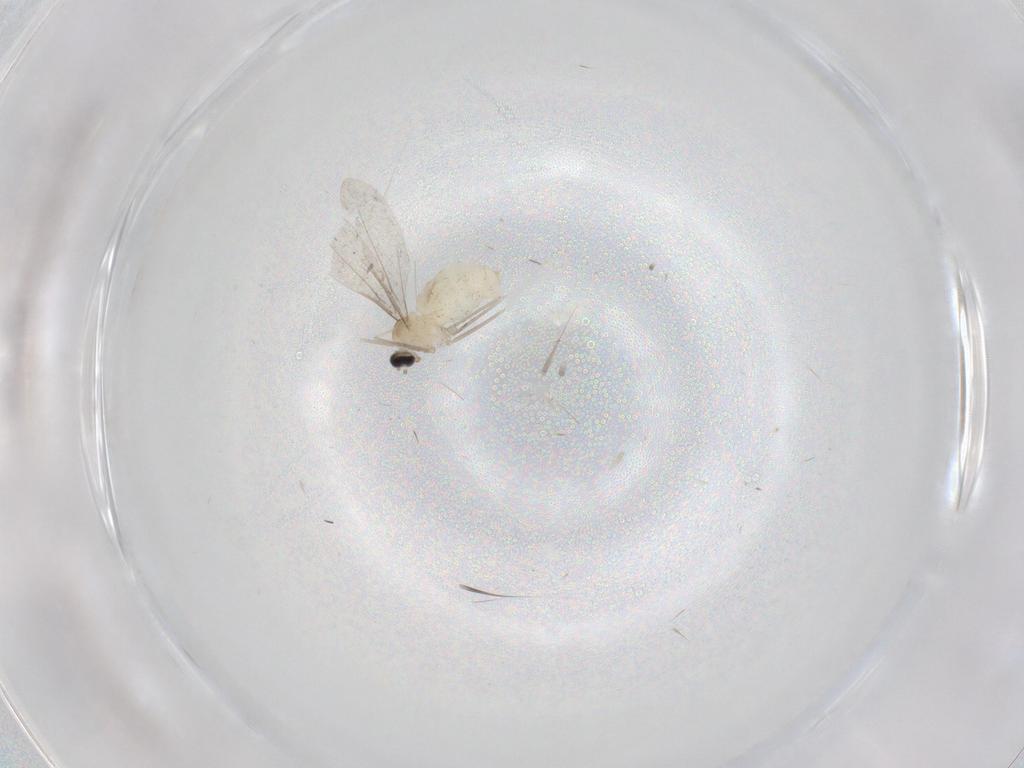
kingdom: Animalia
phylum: Arthropoda
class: Insecta
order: Diptera
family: Cecidomyiidae
